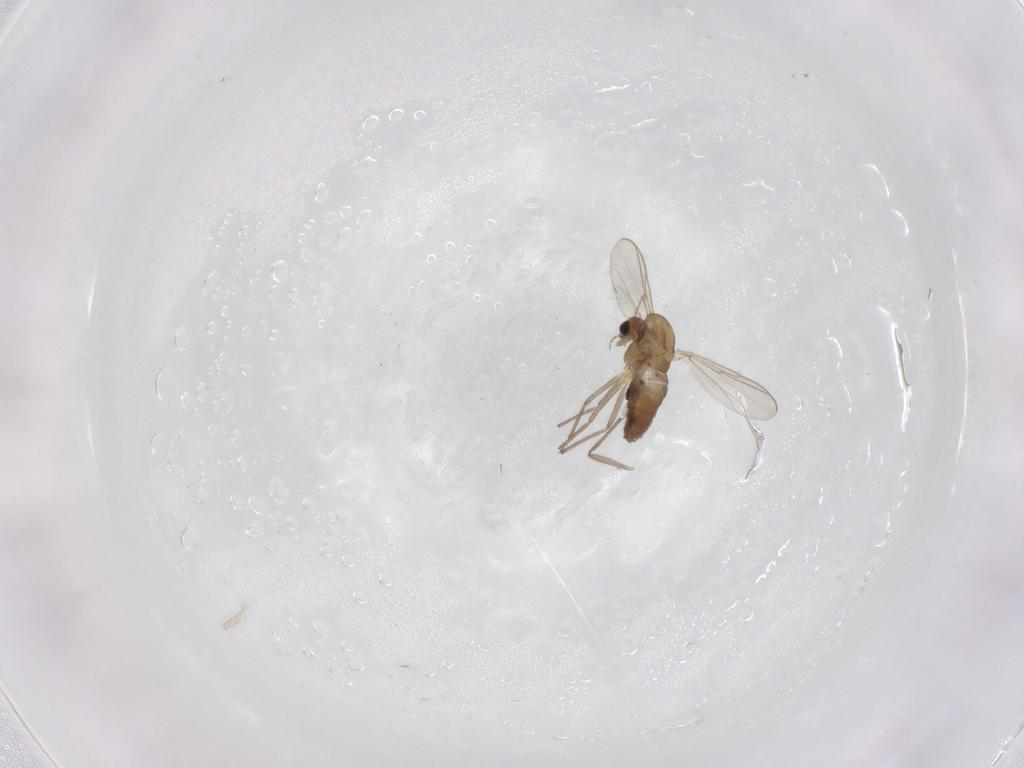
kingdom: Animalia
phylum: Arthropoda
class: Insecta
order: Diptera
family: Chironomidae
